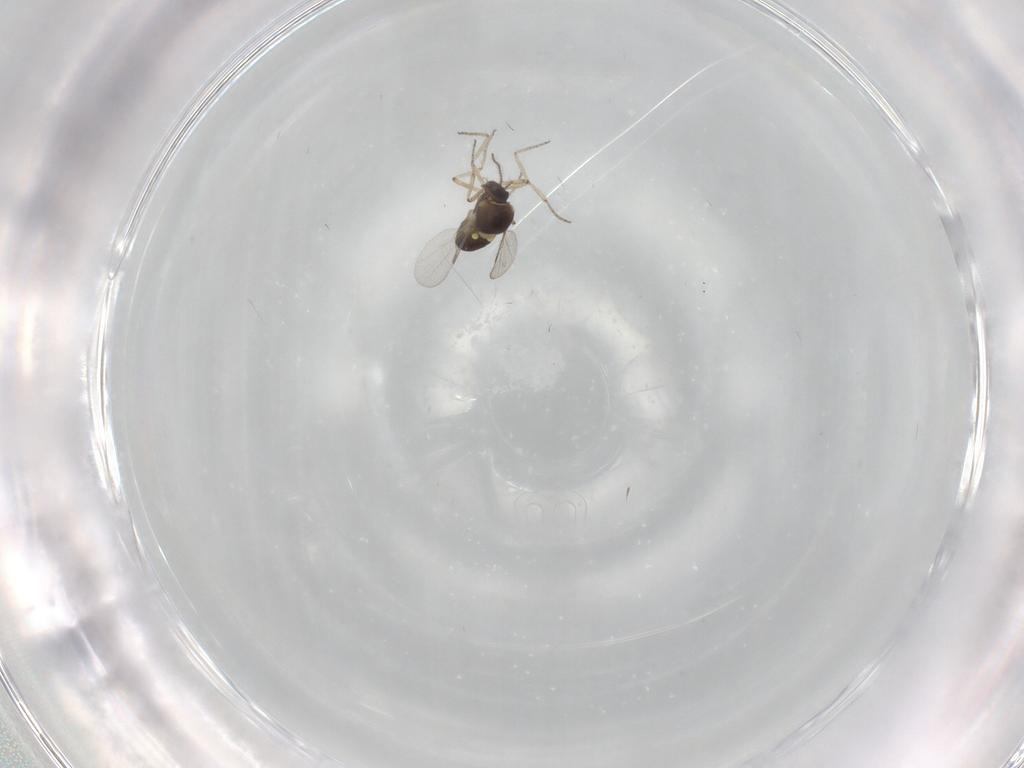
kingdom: Animalia
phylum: Arthropoda
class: Insecta
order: Diptera
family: Ceratopogonidae
